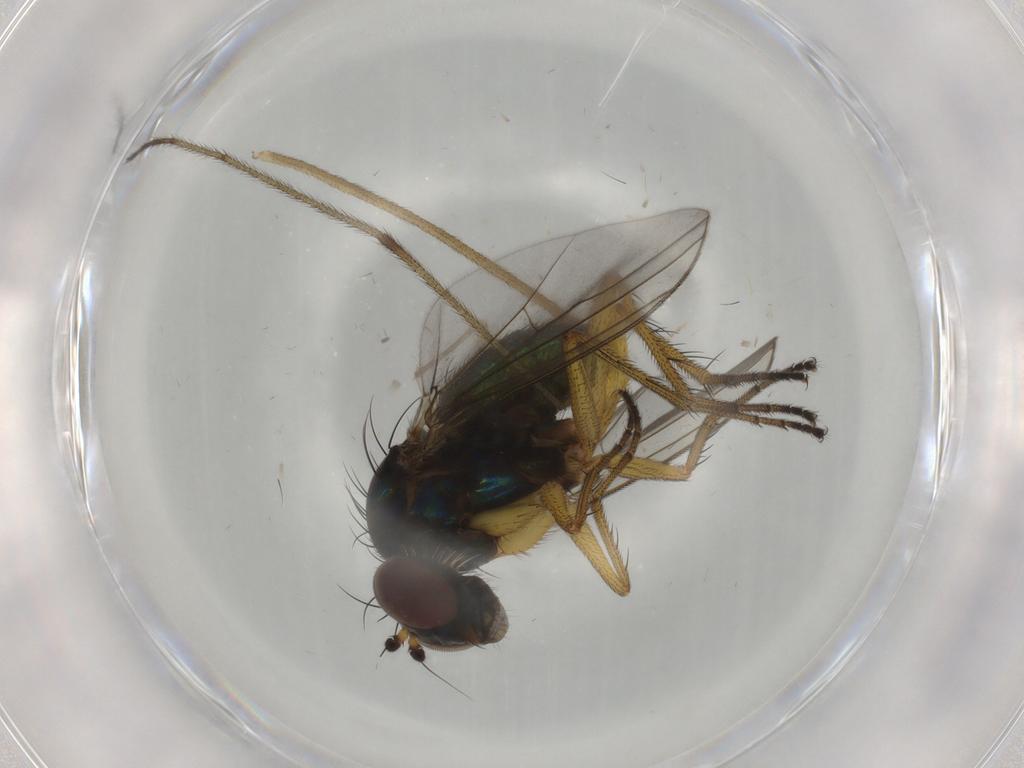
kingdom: Animalia
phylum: Arthropoda
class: Insecta
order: Diptera
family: Limoniidae
